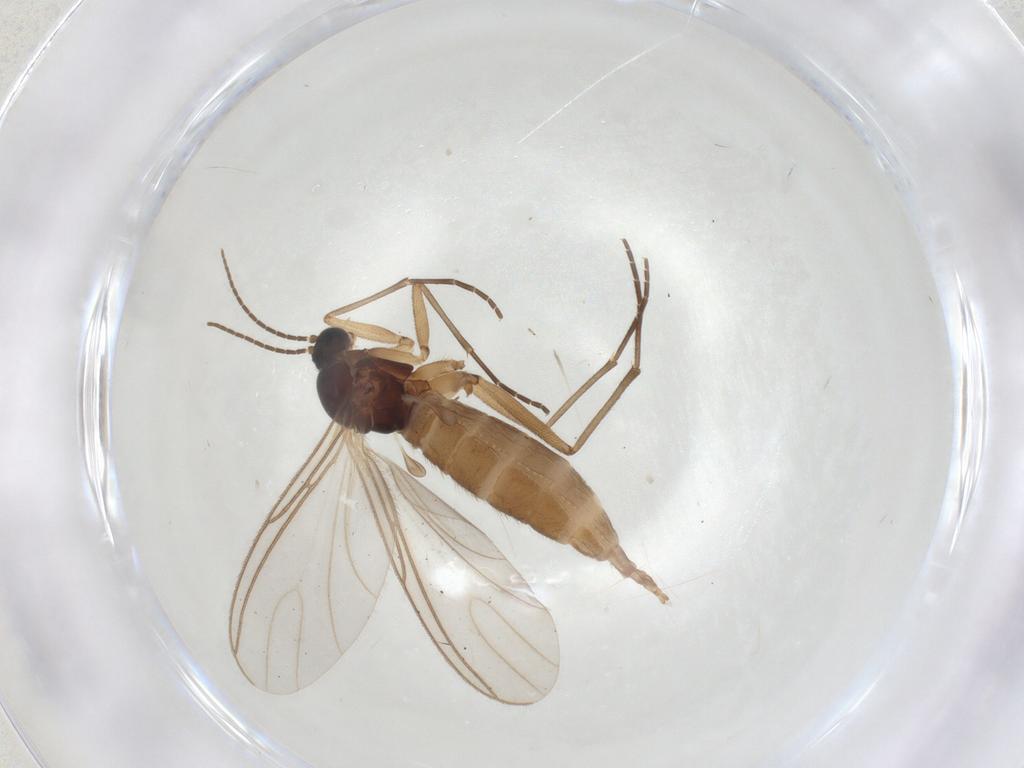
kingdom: Animalia
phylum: Arthropoda
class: Insecta
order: Diptera
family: Sciaridae
